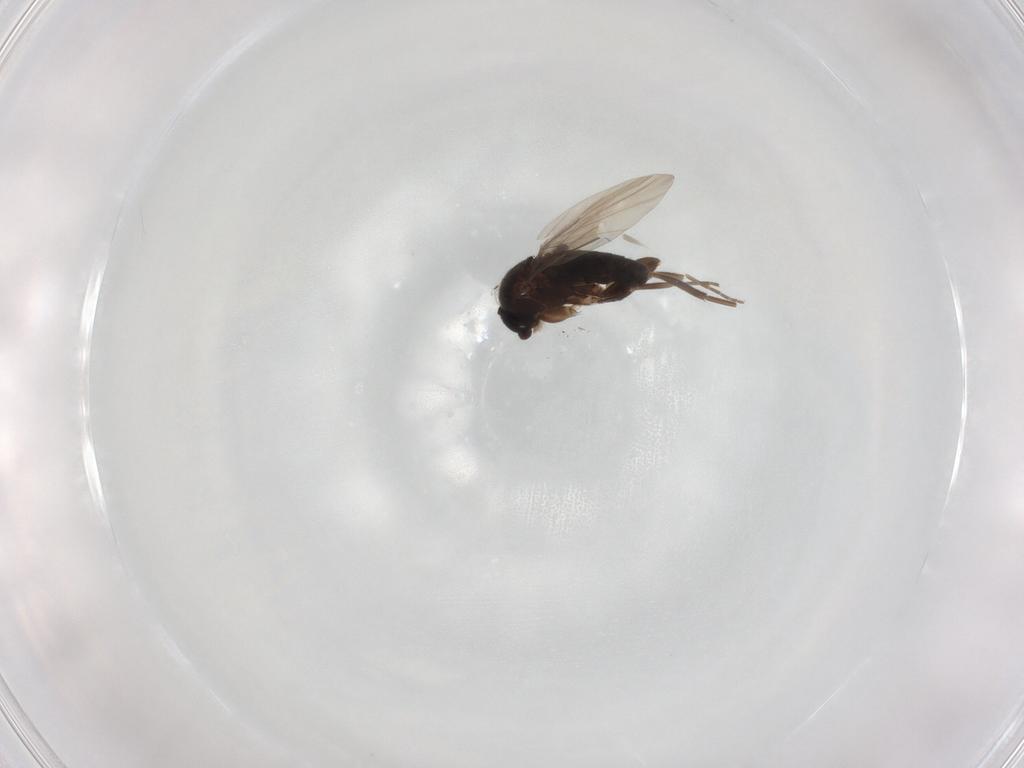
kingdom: Animalia
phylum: Arthropoda
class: Insecta
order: Diptera
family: Phoridae
